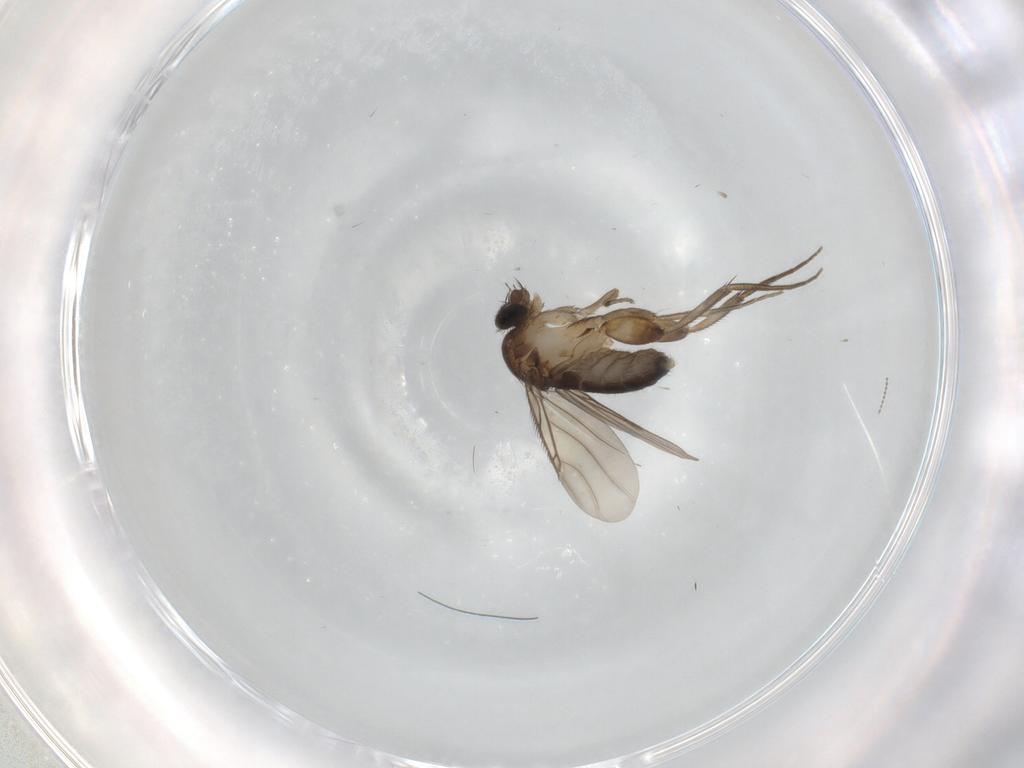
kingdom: Animalia
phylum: Arthropoda
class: Insecta
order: Diptera
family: Phoridae
